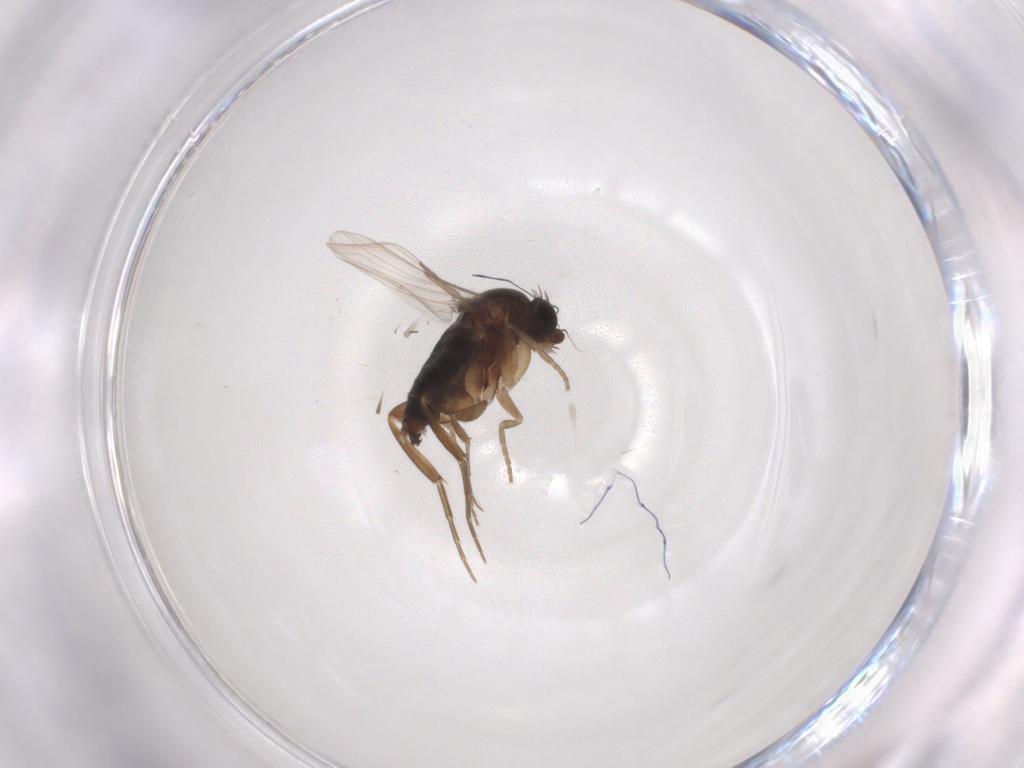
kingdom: Animalia
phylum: Arthropoda
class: Insecta
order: Diptera
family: Phoridae
